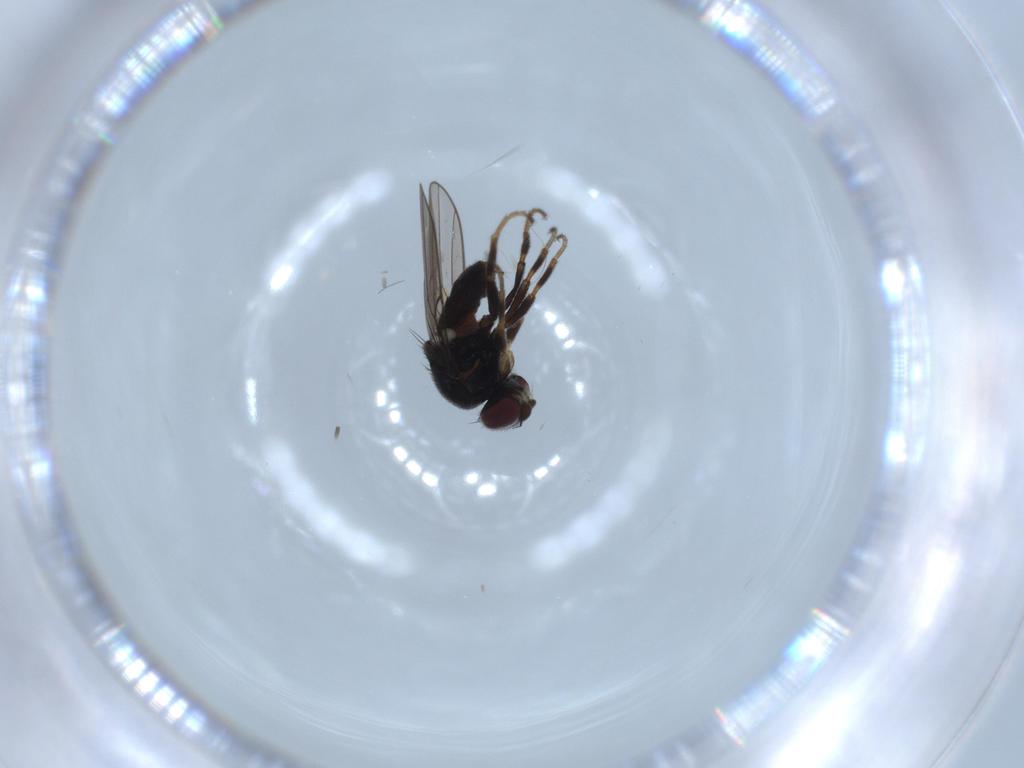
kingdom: Animalia
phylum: Arthropoda
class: Insecta
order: Diptera
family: Chloropidae
